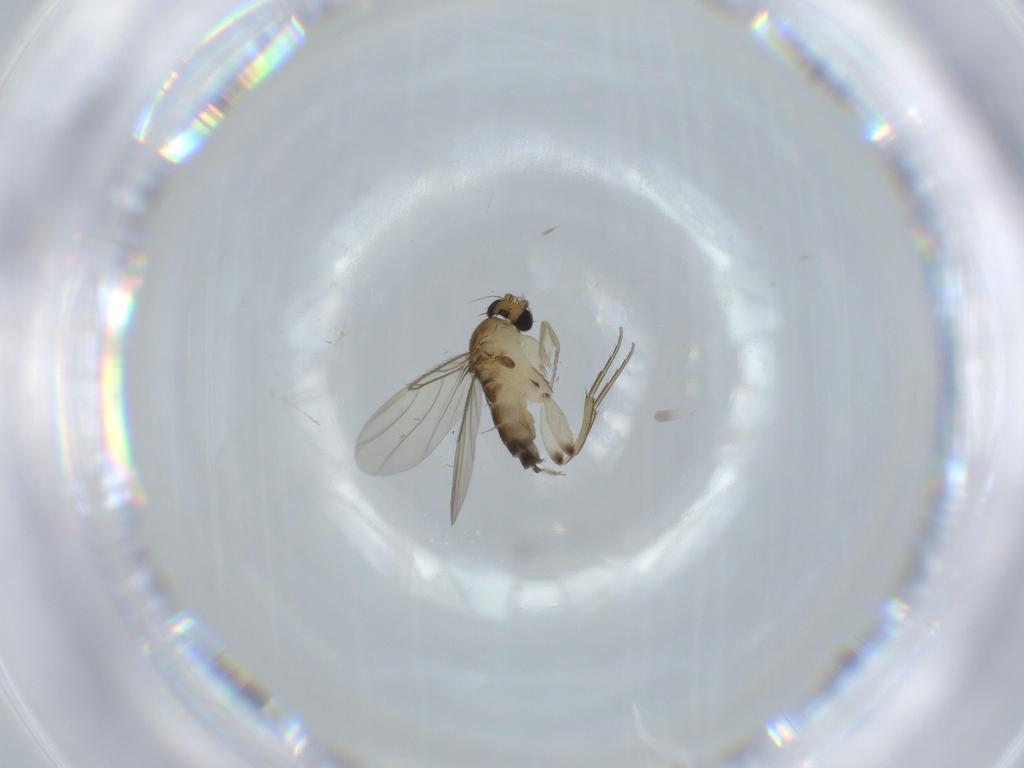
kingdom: Animalia
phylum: Arthropoda
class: Insecta
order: Diptera
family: Phoridae
